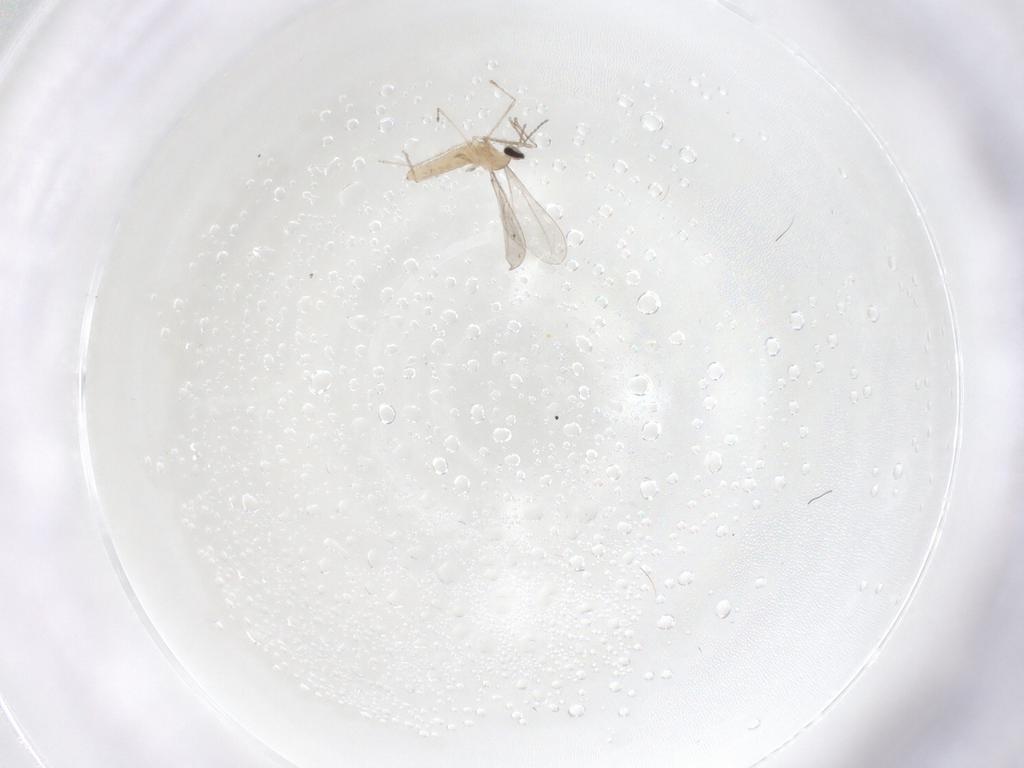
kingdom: Animalia
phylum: Arthropoda
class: Insecta
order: Diptera
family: Cecidomyiidae
